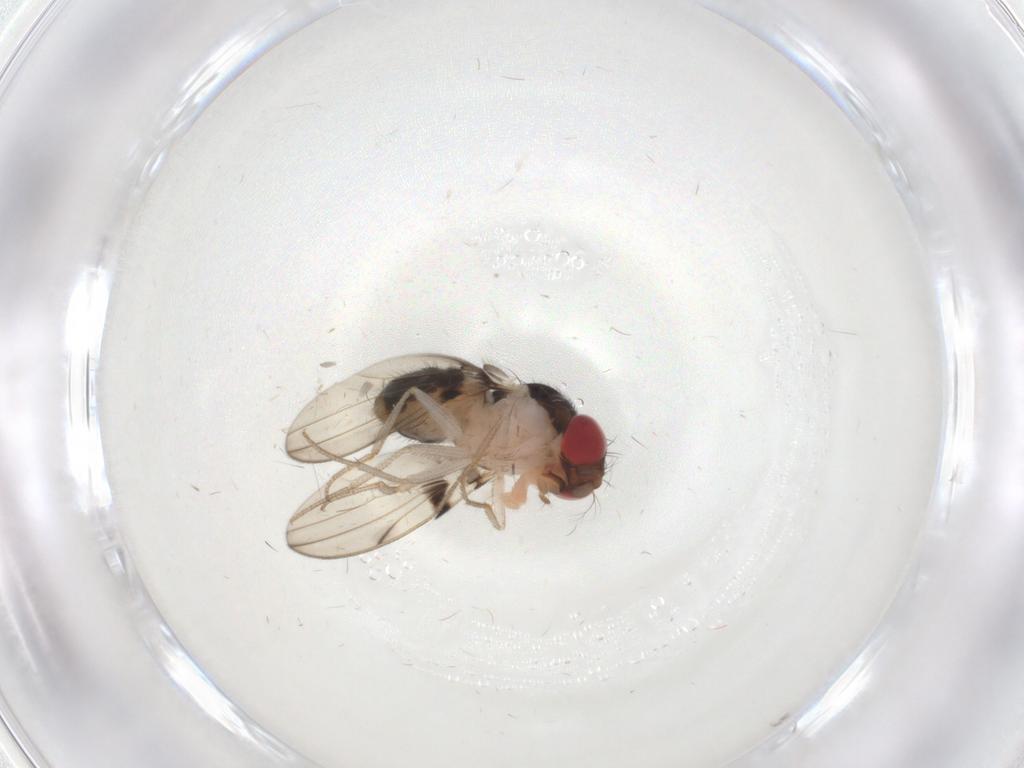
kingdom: Animalia
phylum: Arthropoda
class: Insecta
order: Diptera
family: Drosophilidae
